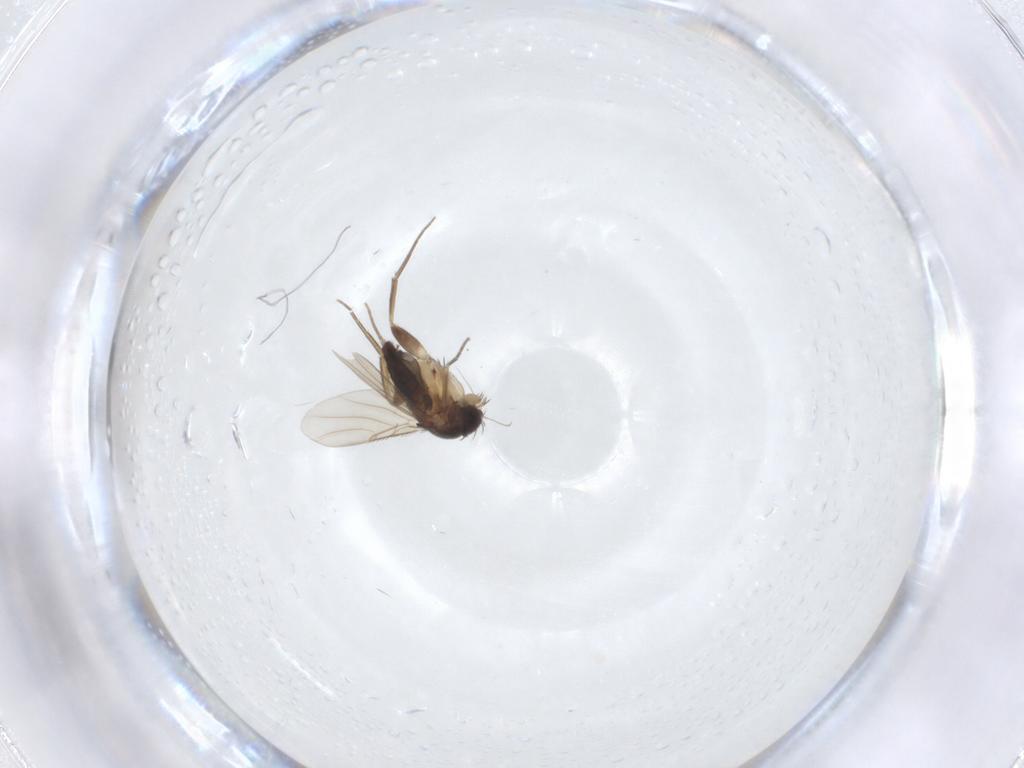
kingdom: Animalia
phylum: Arthropoda
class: Insecta
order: Diptera
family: Phoridae
